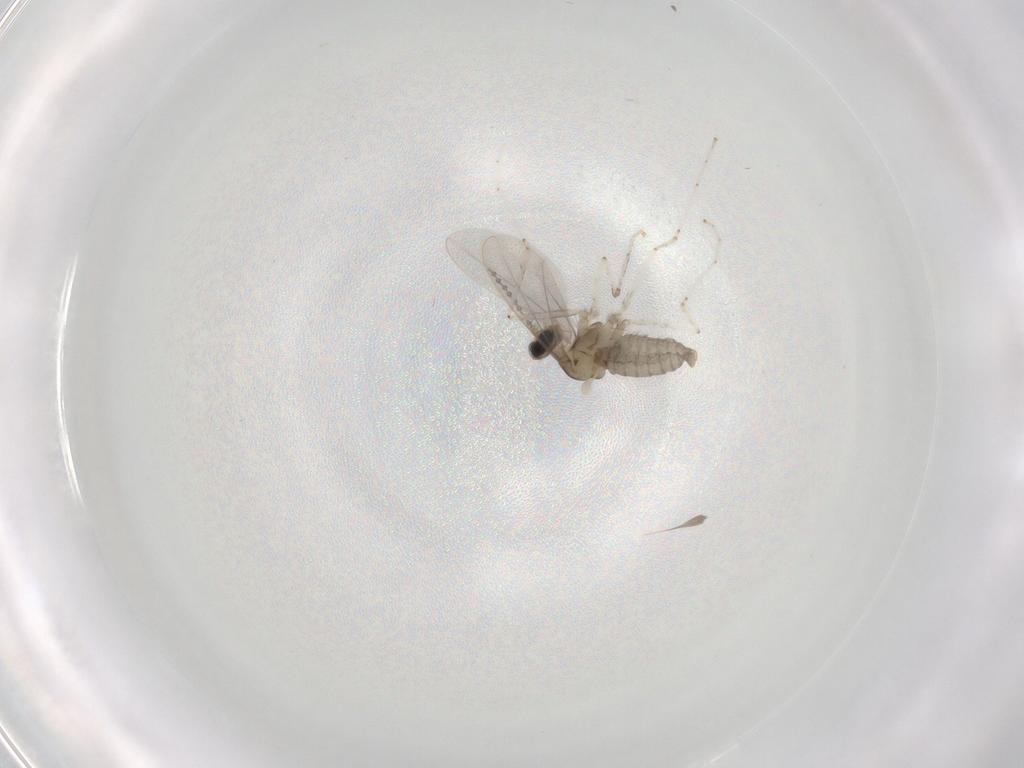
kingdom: Animalia
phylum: Arthropoda
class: Insecta
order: Diptera
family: Cecidomyiidae
